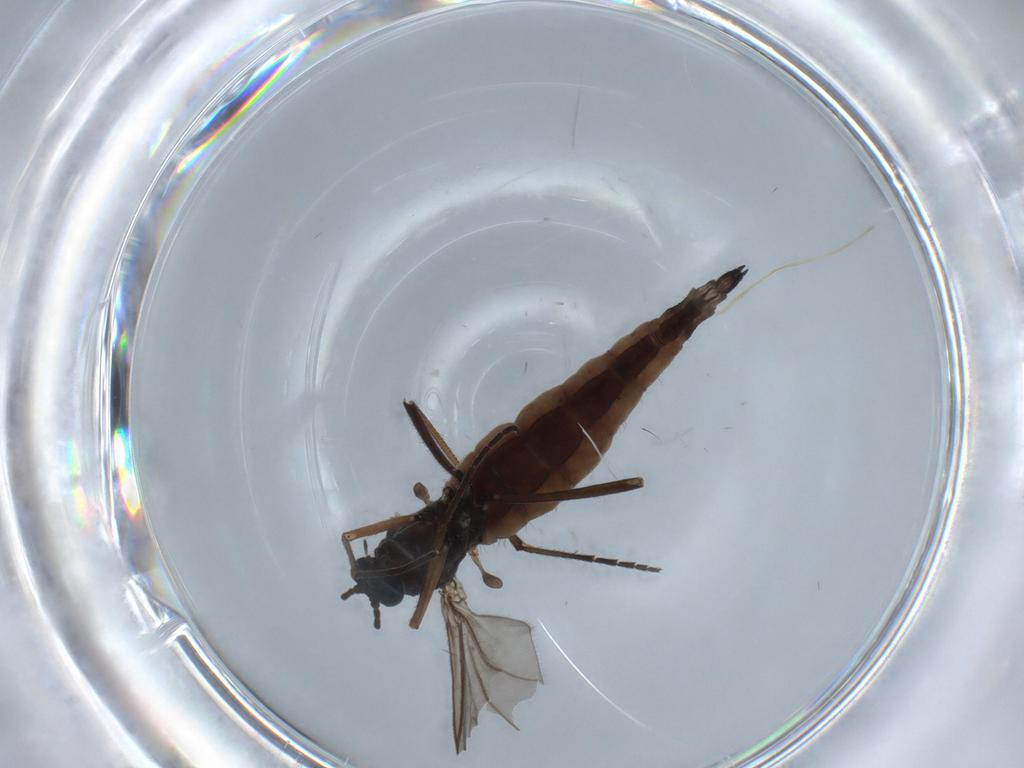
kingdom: Animalia
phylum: Arthropoda
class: Insecta
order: Diptera
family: Sciaridae
